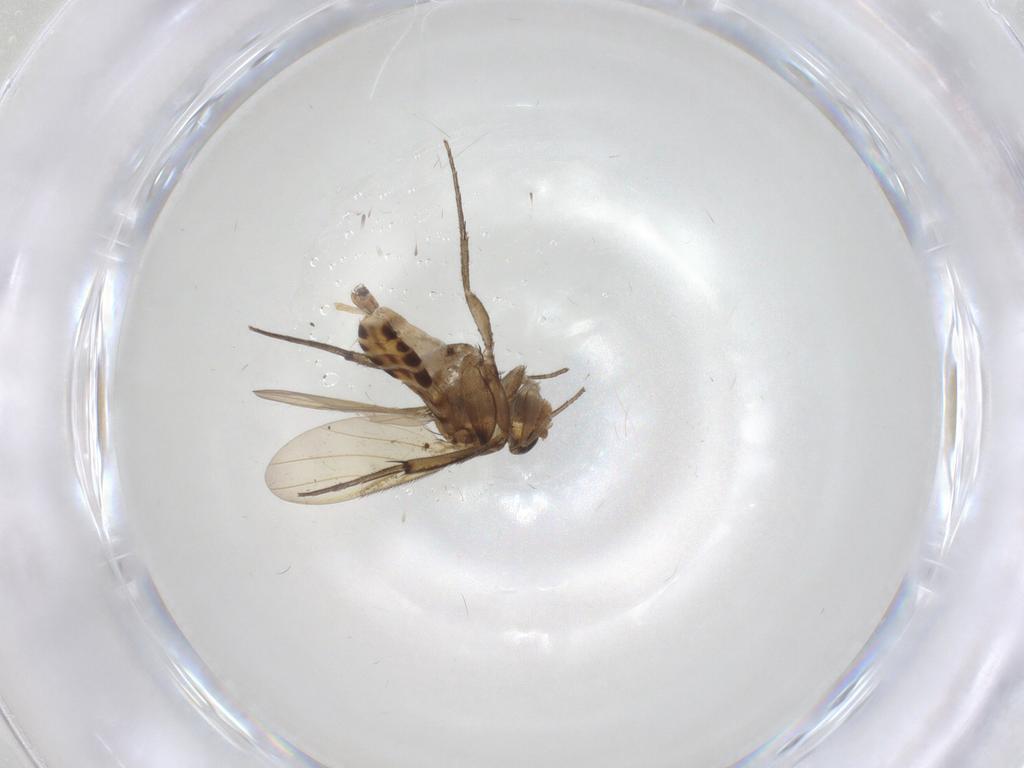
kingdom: Animalia
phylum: Arthropoda
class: Insecta
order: Diptera
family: Phoridae
